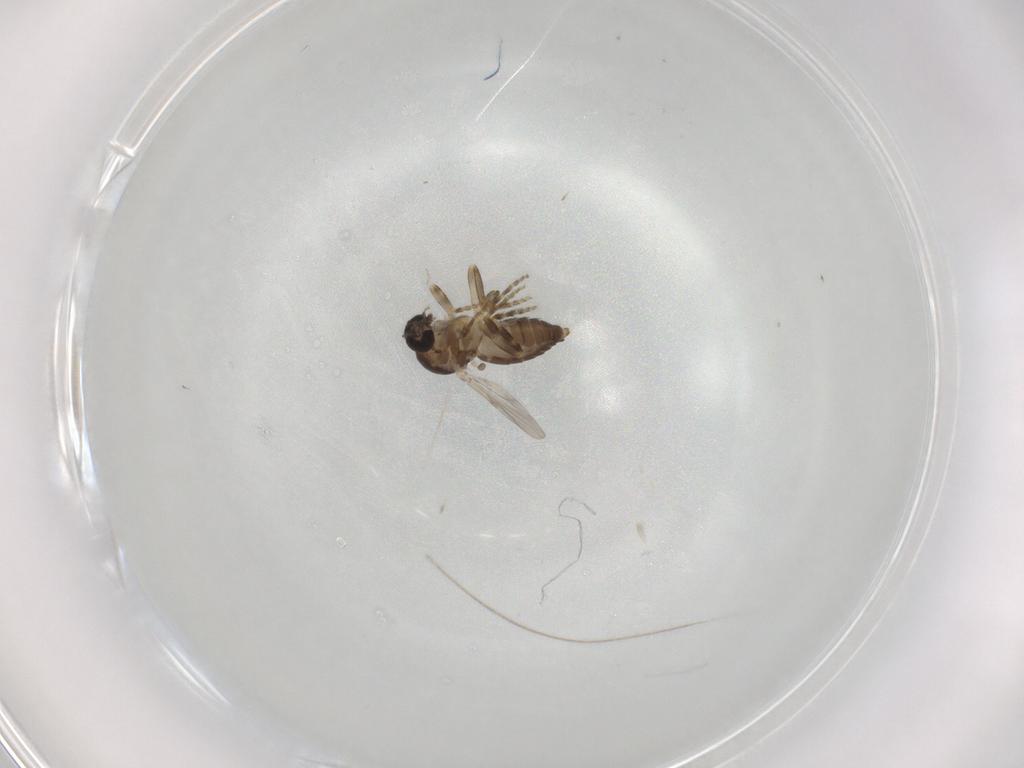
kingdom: Animalia
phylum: Arthropoda
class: Insecta
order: Diptera
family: Ceratopogonidae
